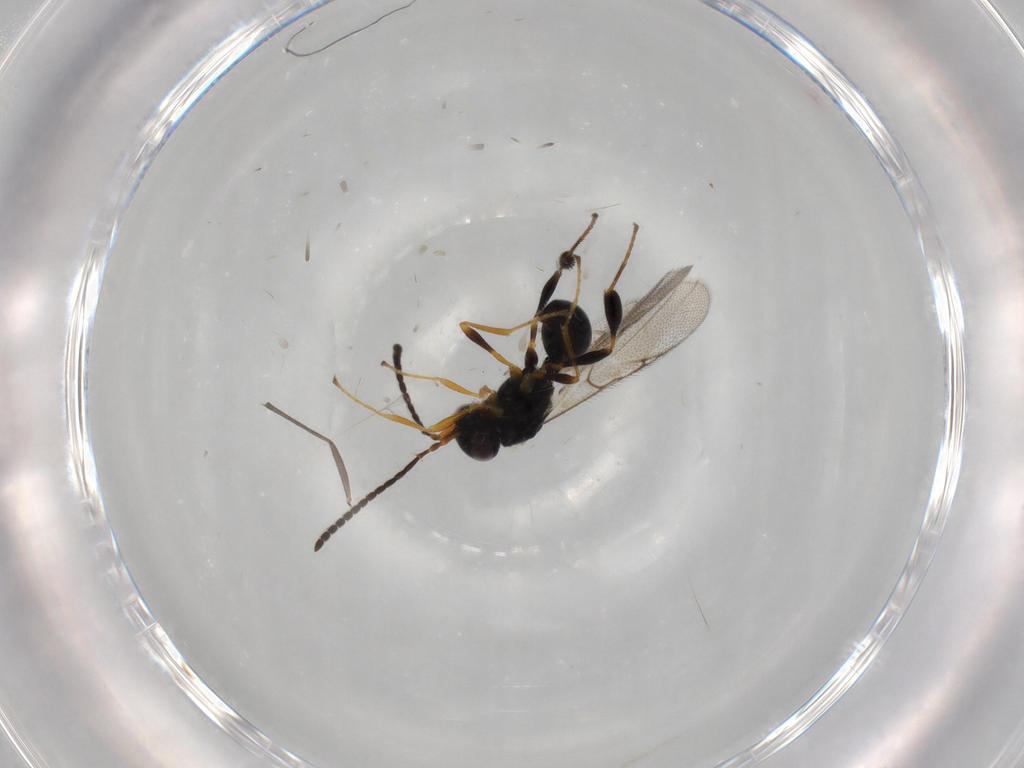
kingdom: Animalia
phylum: Arthropoda
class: Insecta
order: Hymenoptera
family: Diapriidae
